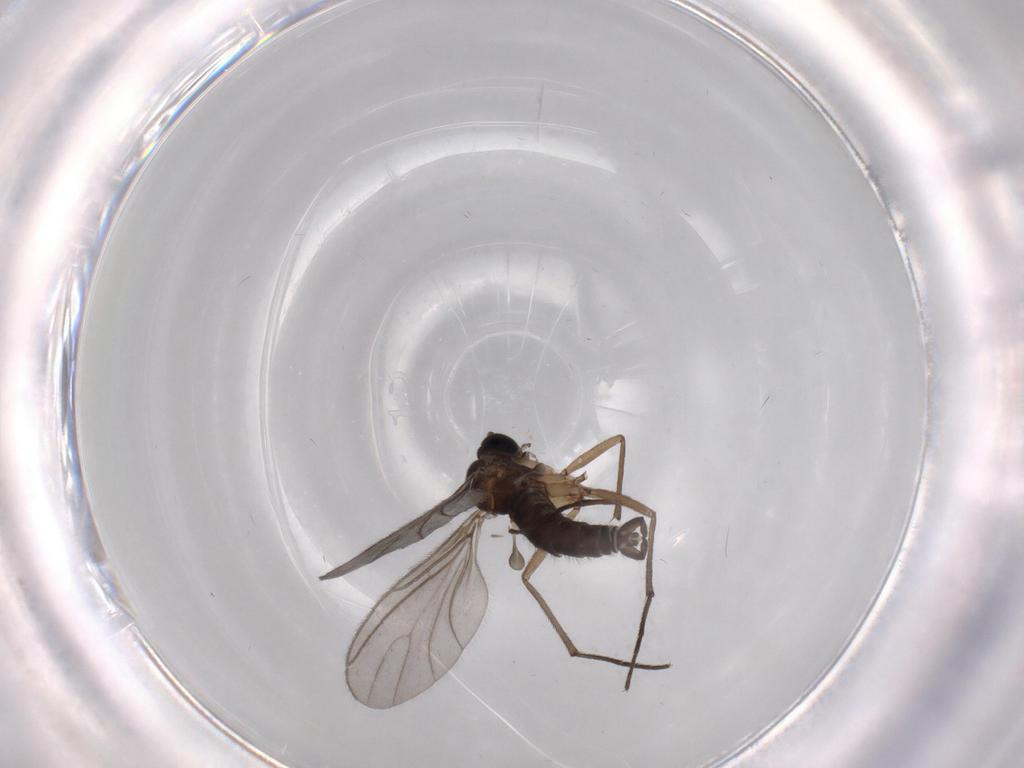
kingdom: Animalia
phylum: Arthropoda
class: Insecta
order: Diptera
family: Sciaridae
